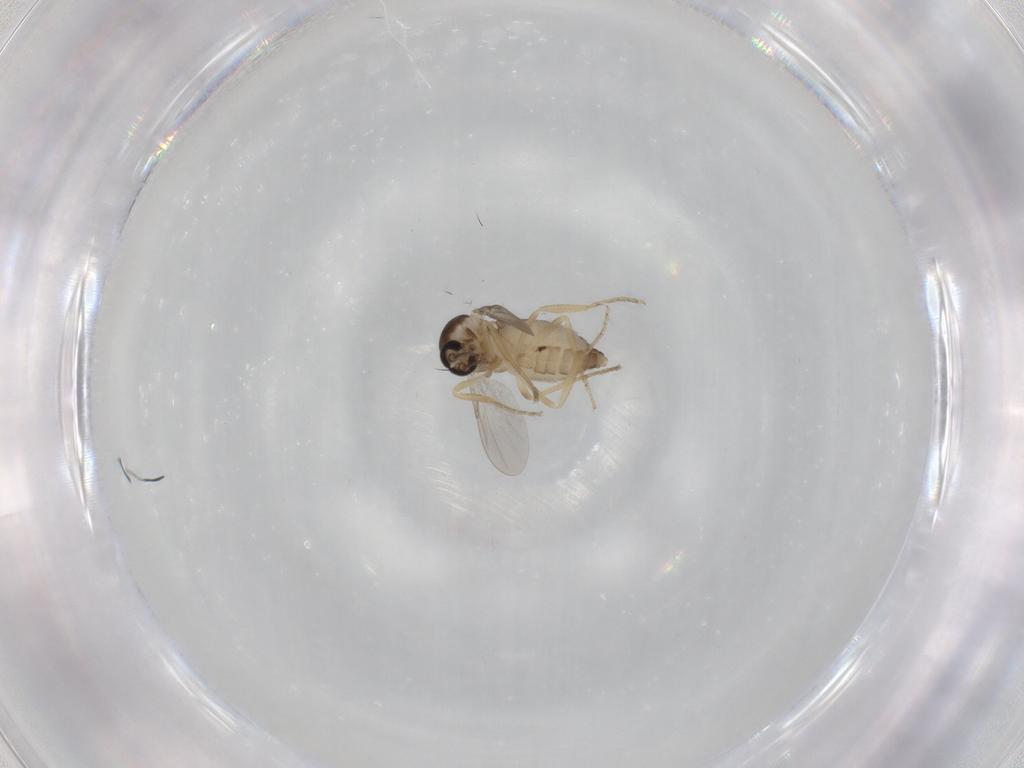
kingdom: Animalia
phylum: Arthropoda
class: Insecta
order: Diptera
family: Ceratopogonidae
